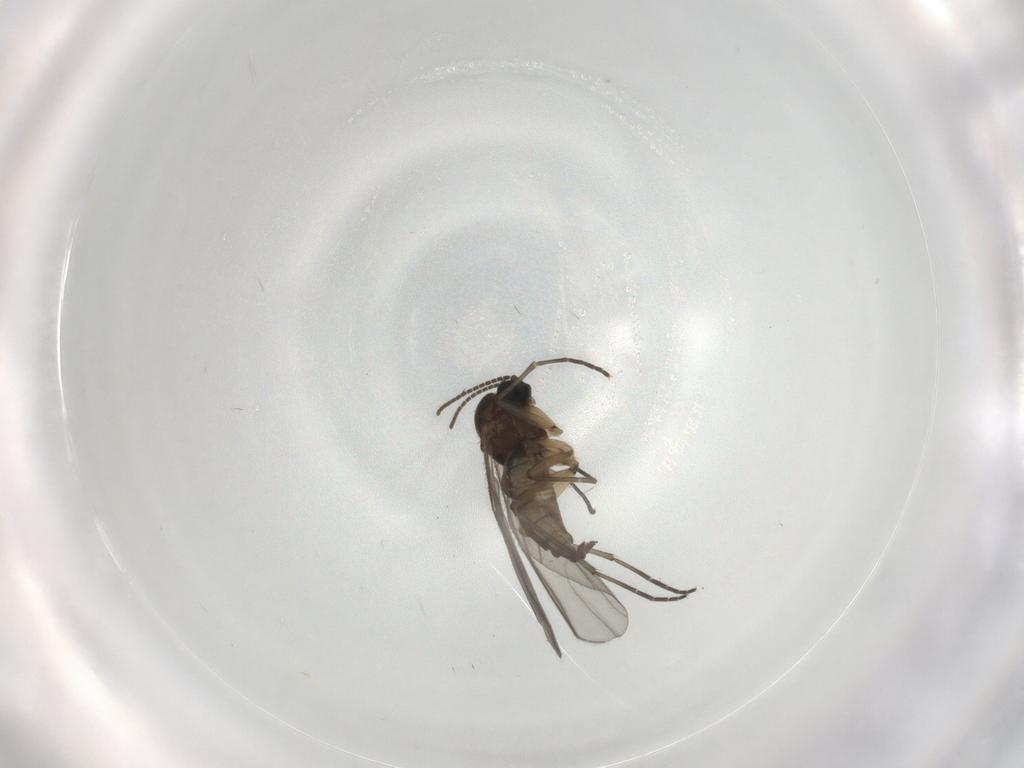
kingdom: Animalia
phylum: Arthropoda
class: Insecta
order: Diptera
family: Sciaridae
